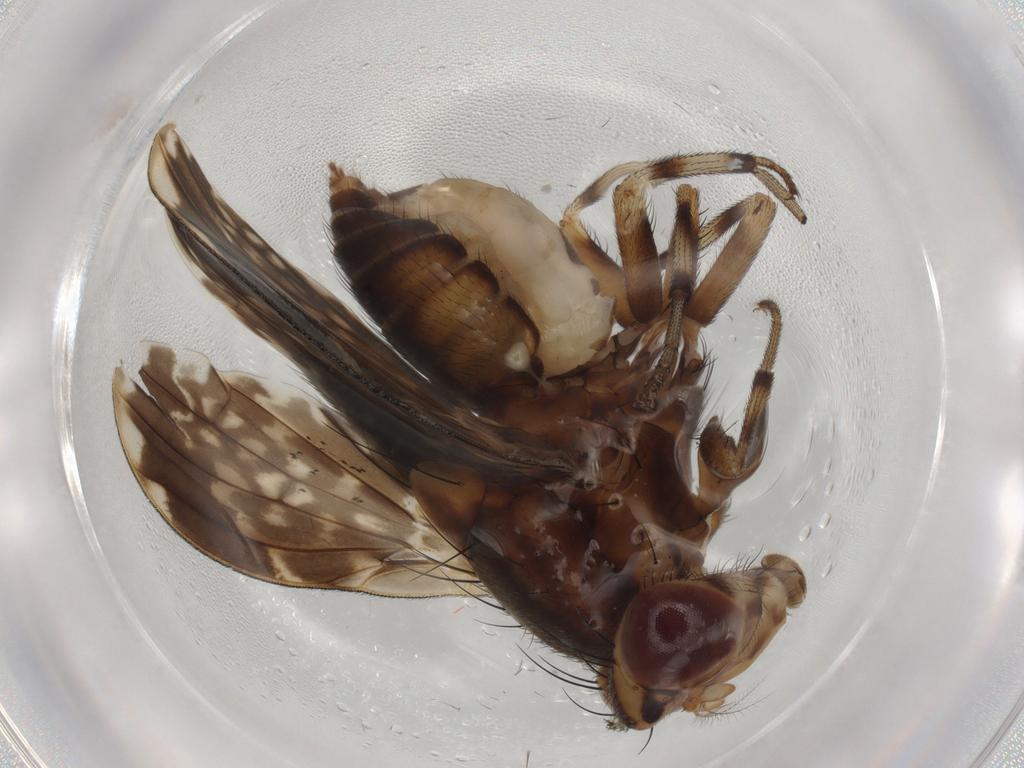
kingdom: Animalia
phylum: Arthropoda
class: Insecta
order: Diptera
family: Lauxaniidae
